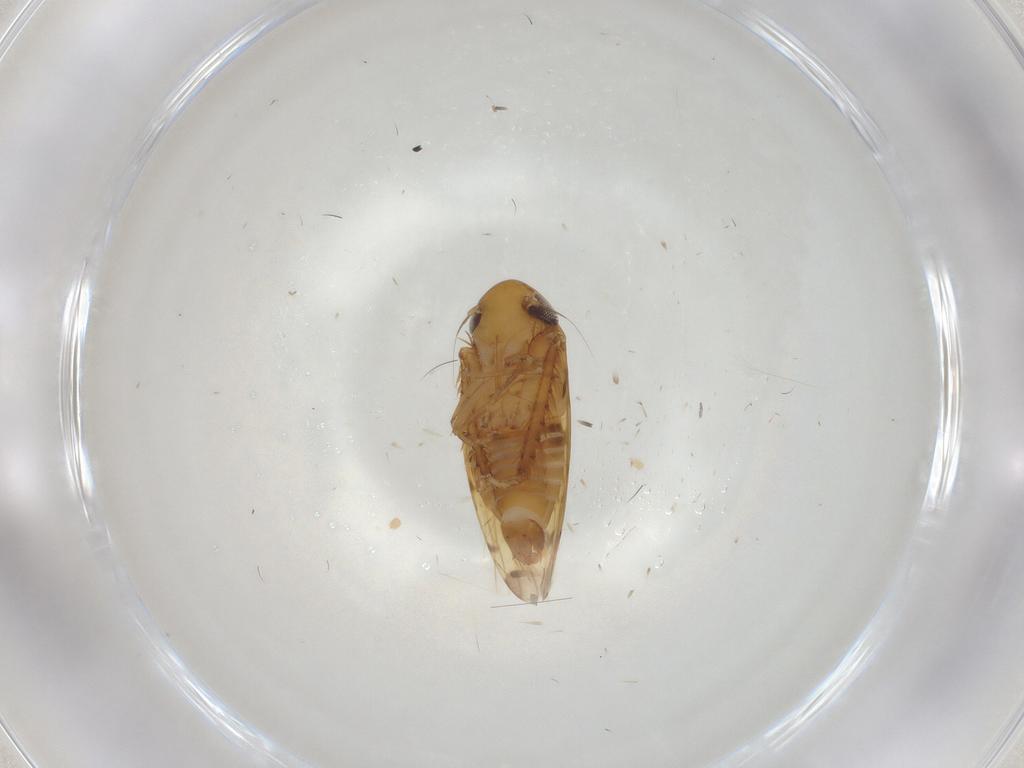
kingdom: Animalia
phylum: Arthropoda
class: Insecta
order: Hemiptera
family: Cicadellidae
